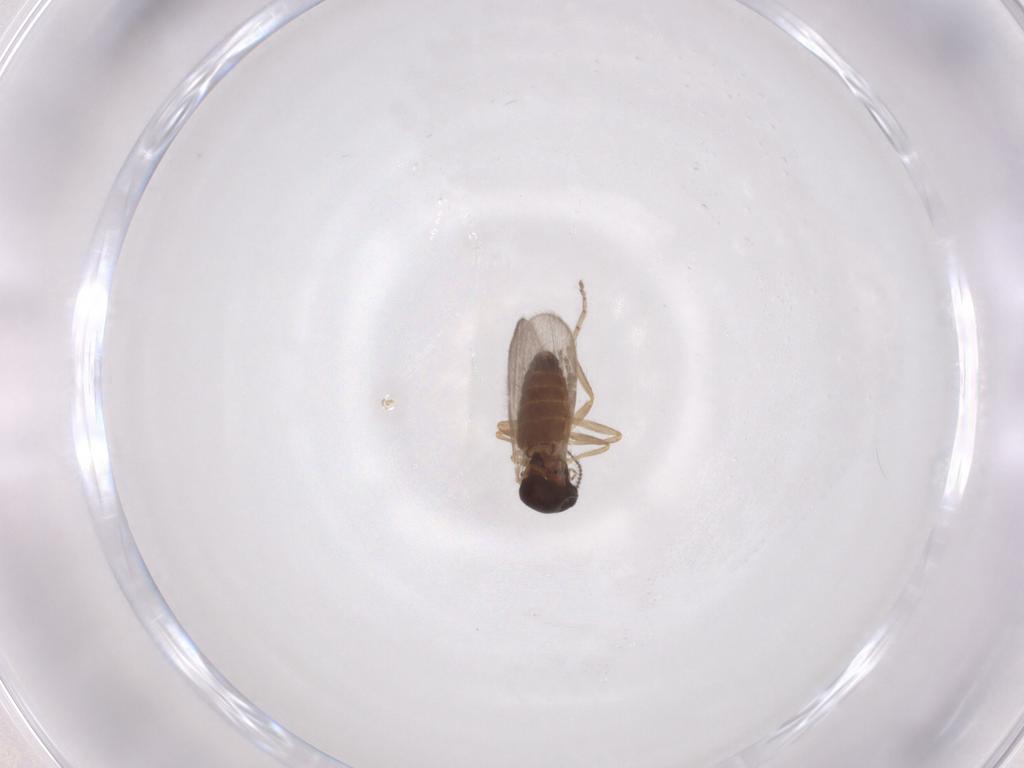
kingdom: Animalia
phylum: Arthropoda
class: Insecta
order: Diptera
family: Ceratopogonidae
